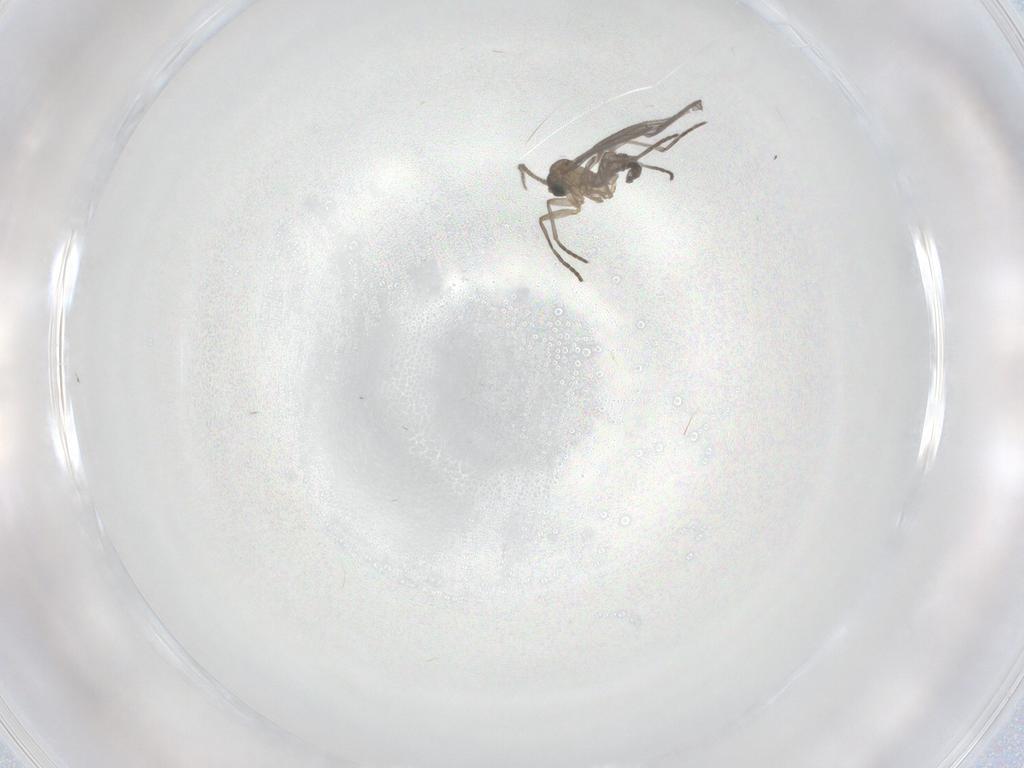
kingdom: Animalia
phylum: Arthropoda
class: Insecta
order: Diptera
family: Sciaridae
